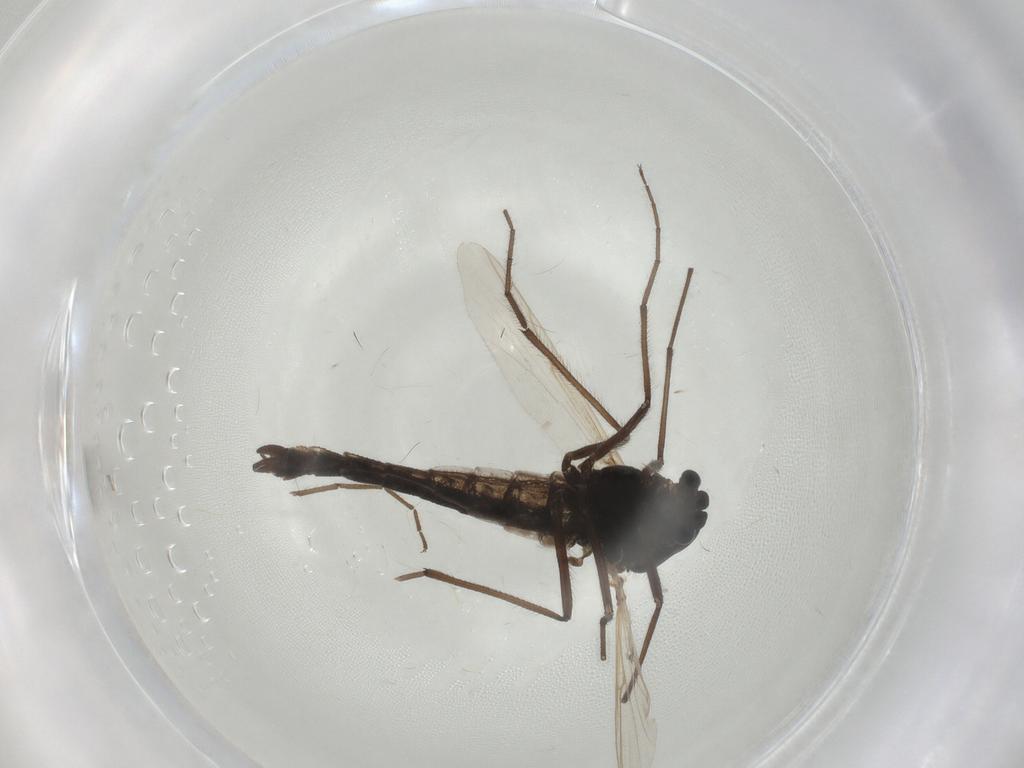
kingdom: Animalia
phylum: Arthropoda
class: Insecta
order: Diptera
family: Chironomidae
